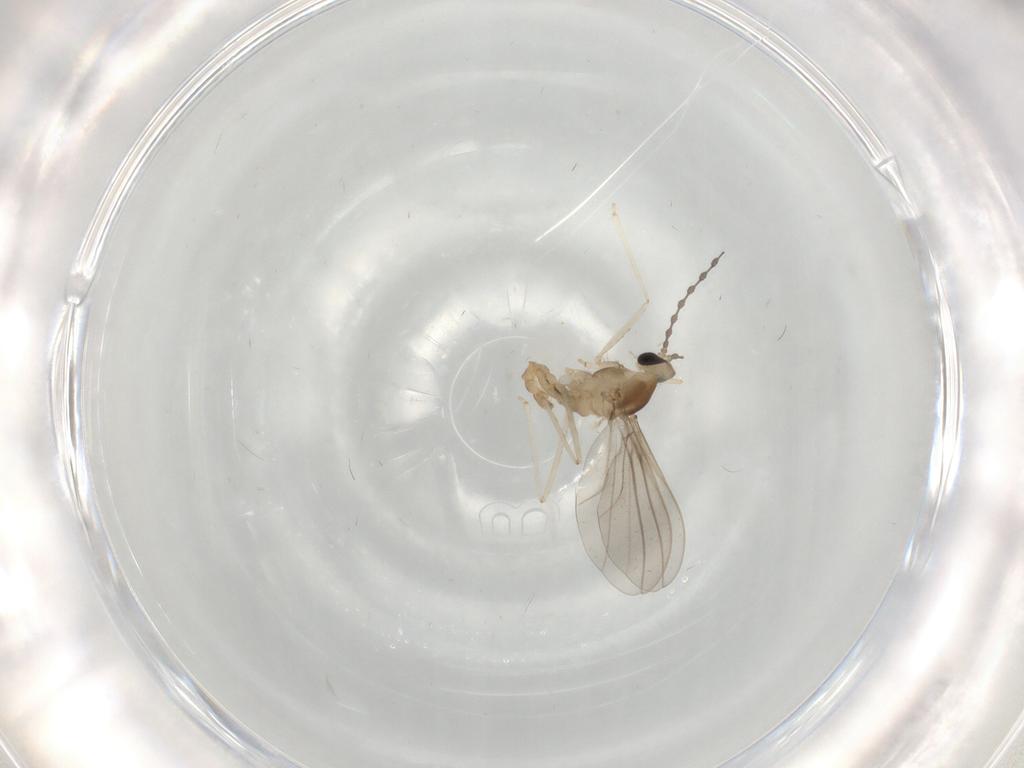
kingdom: Animalia
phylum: Arthropoda
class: Insecta
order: Diptera
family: Cecidomyiidae
